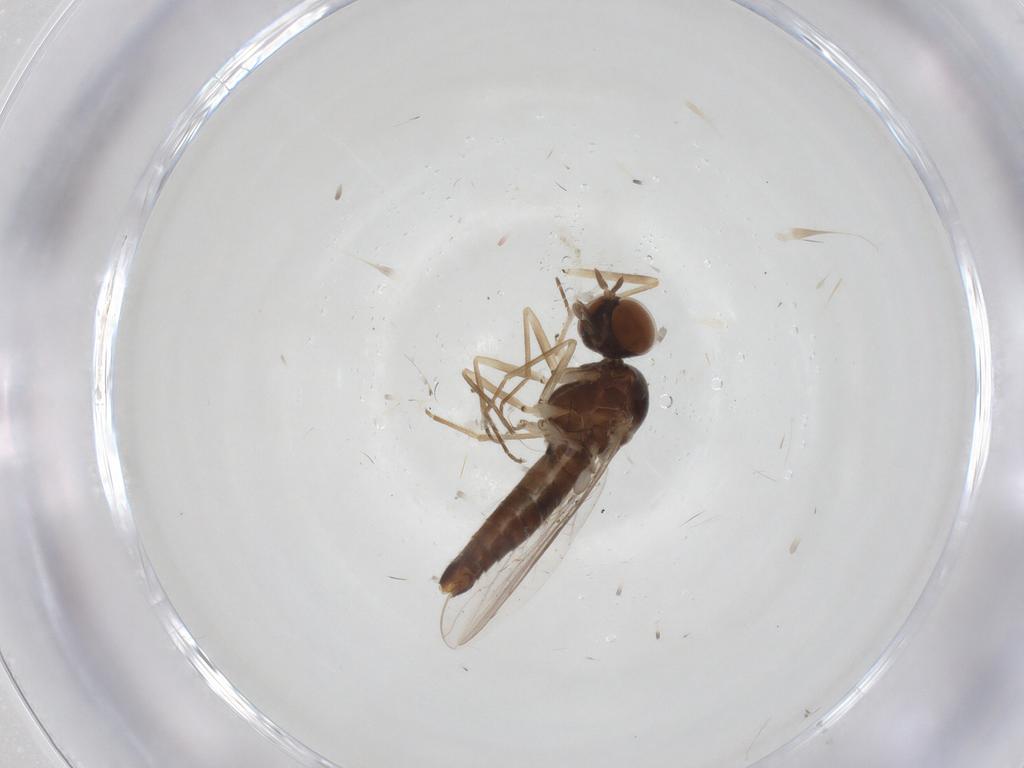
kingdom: Animalia
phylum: Arthropoda
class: Insecta
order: Diptera
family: Scenopinidae
